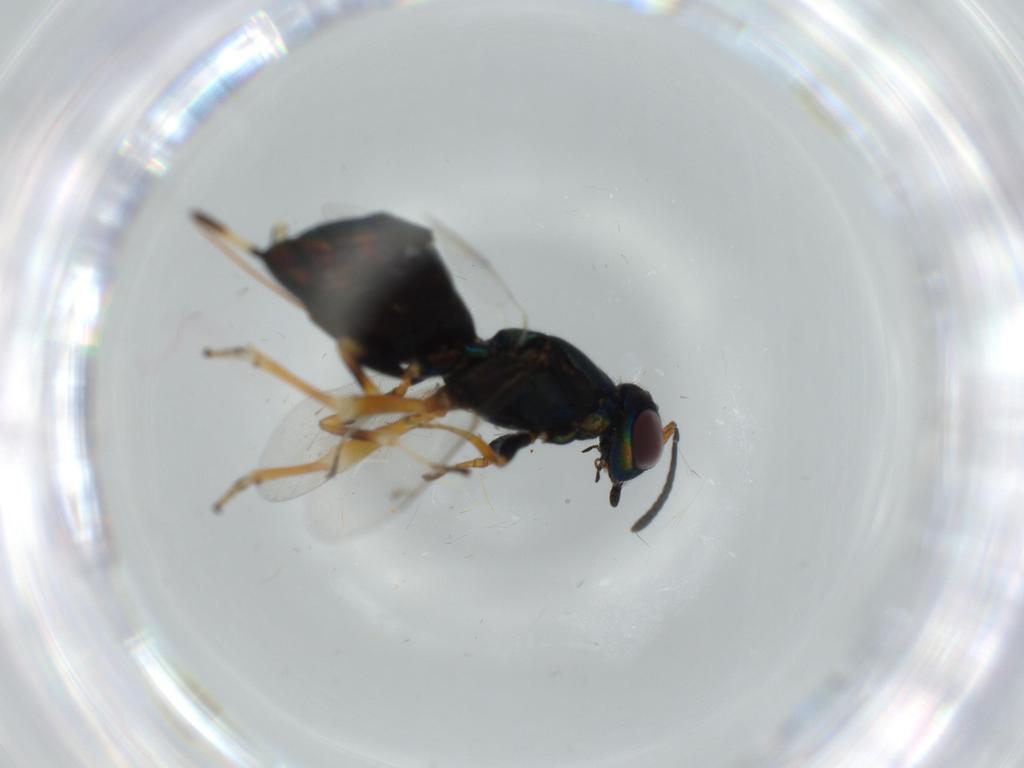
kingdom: Animalia
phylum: Arthropoda
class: Insecta
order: Hymenoptera
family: Eupelmidae
